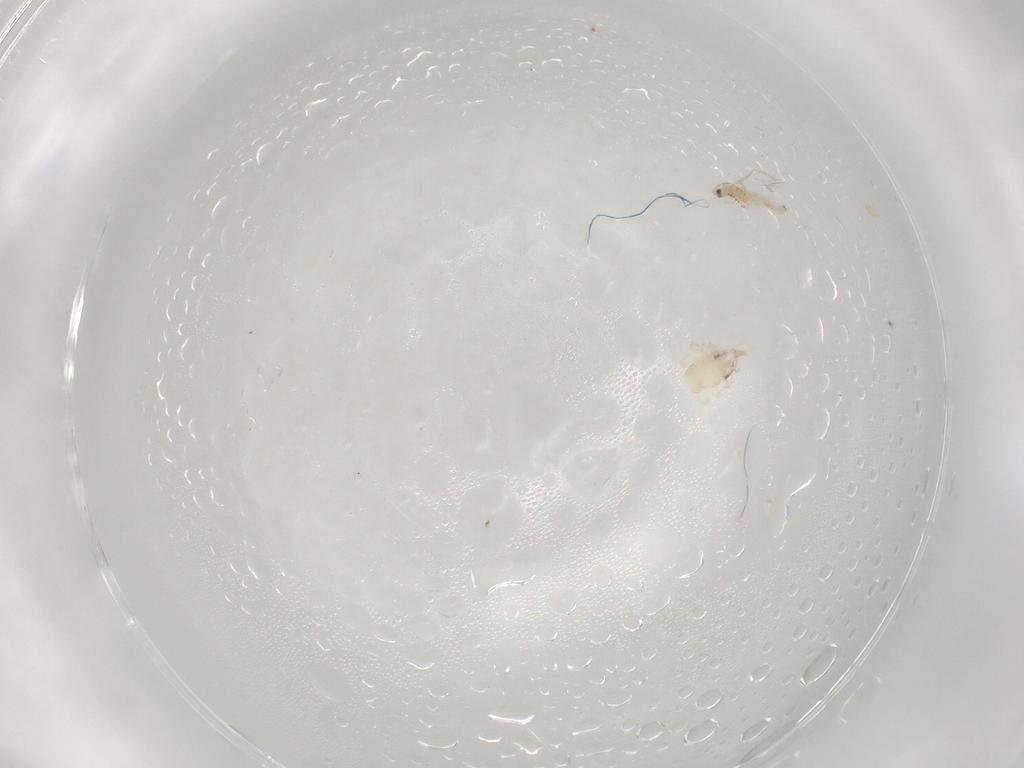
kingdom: Animalia
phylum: Arthropoda
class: Insecta
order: Thysanoptera
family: Thripidae
